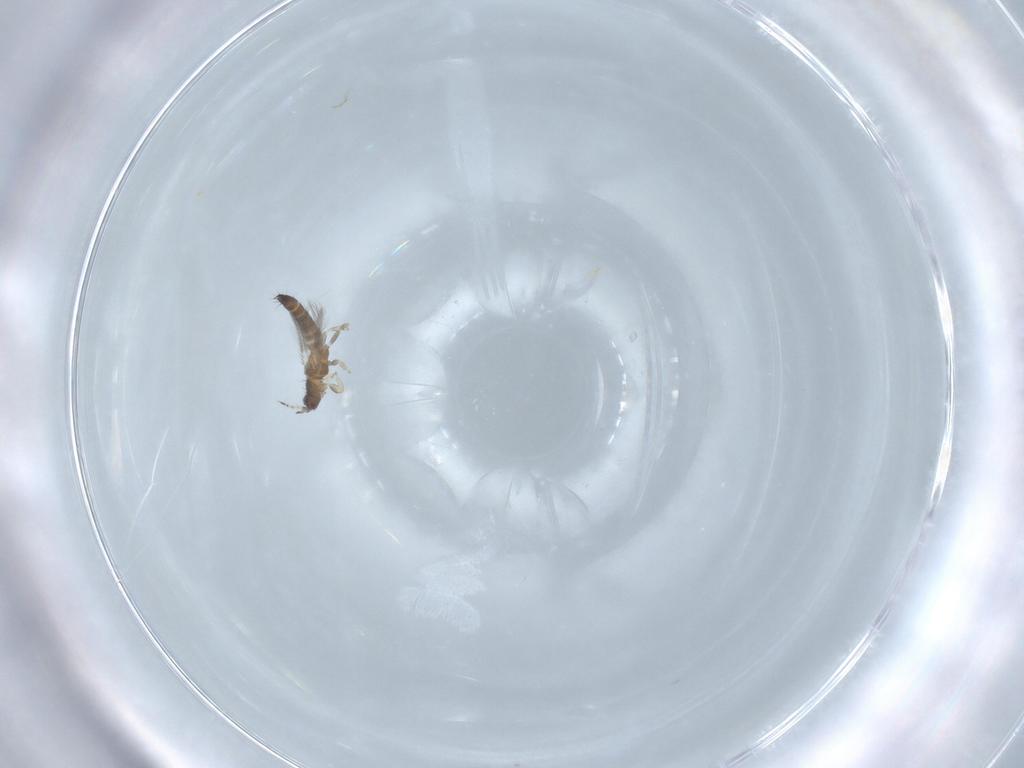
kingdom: Animalia
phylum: Arthropoda
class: Insecta
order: Thysanoptera
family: Thripidae
